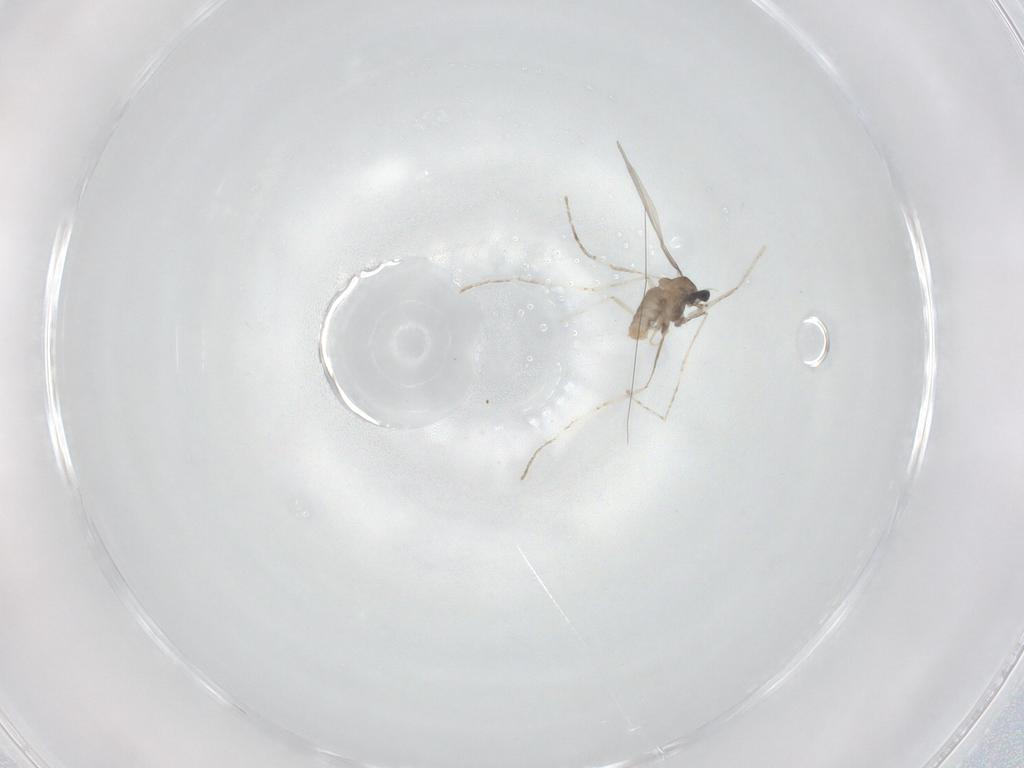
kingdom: Animalia
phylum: Arthropoda
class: Insecta
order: Diptera
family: Cecidomyiidae
